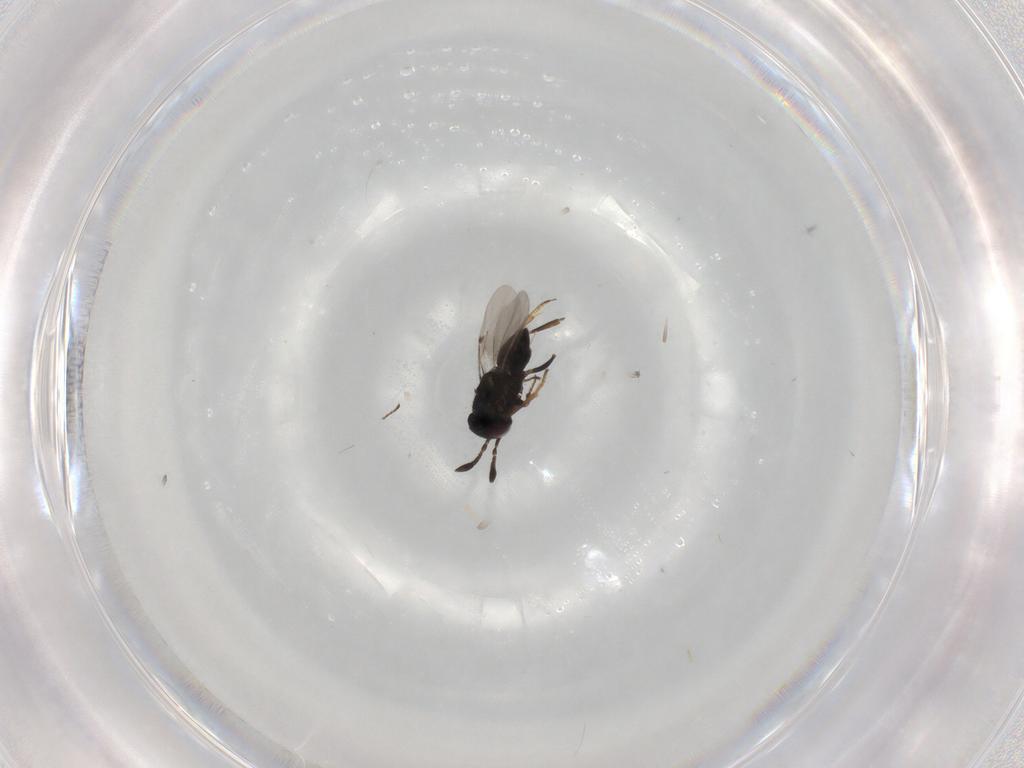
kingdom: Animalia
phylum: Arthropoda
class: Insecta
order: Hymenoptera
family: Encyrtidae
